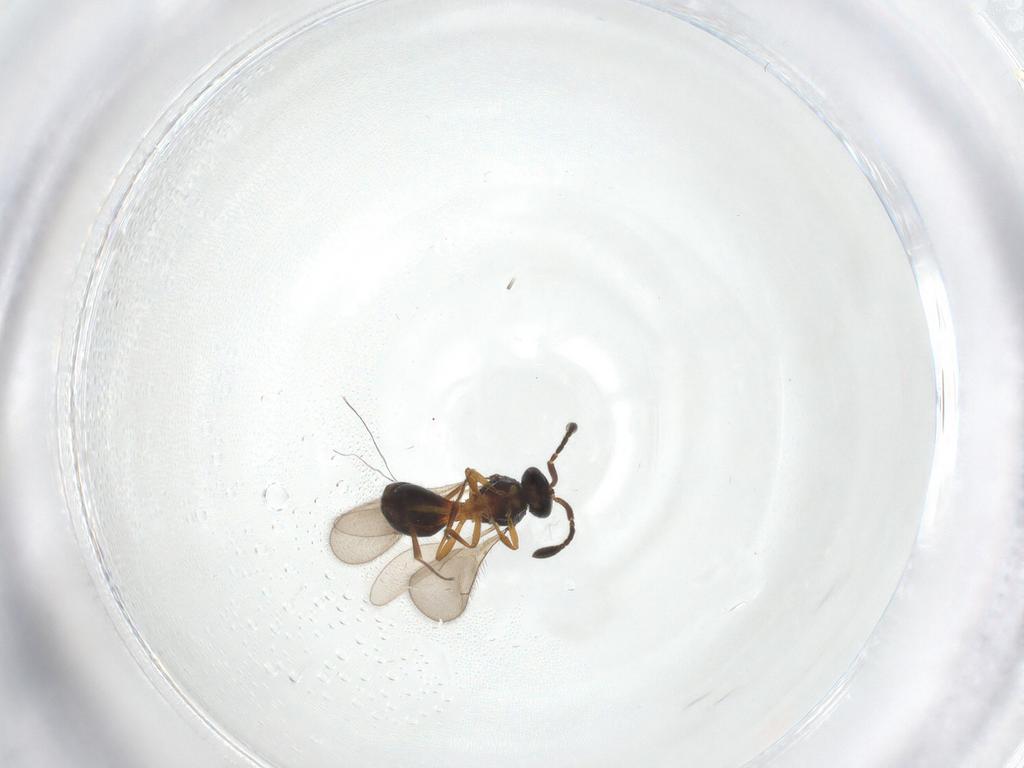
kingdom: Animalia
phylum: Arthropoda
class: Insecta
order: Hymenoptera
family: Scelionidae
